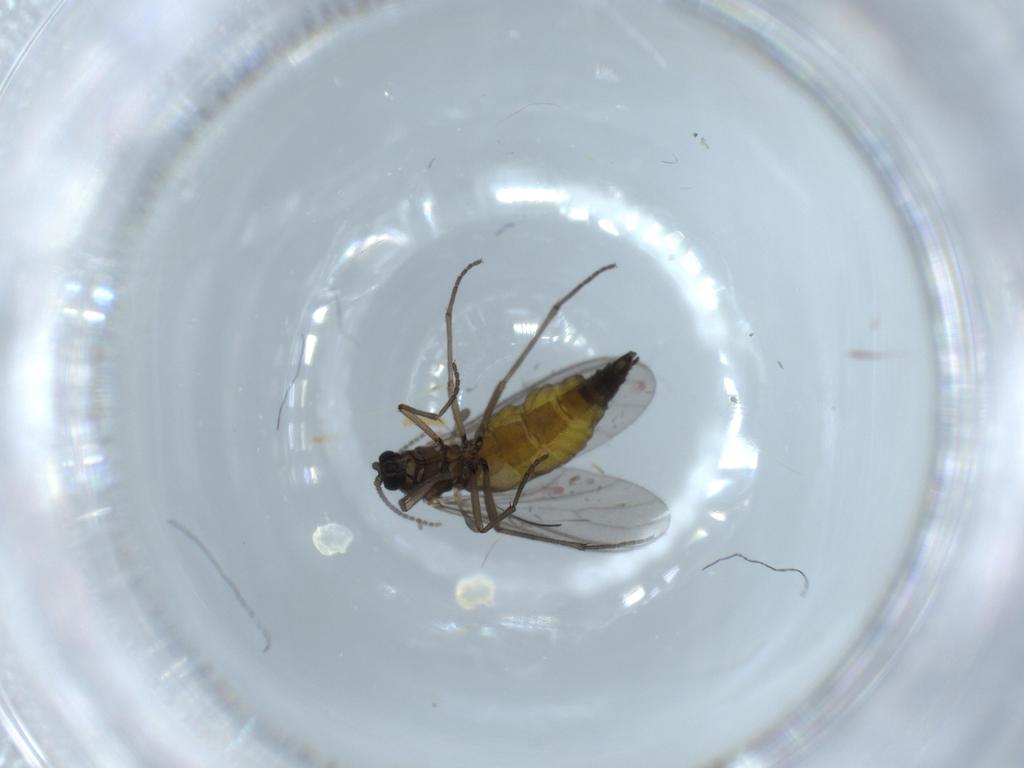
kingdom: Animalia
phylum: Arthropoda
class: Insecta
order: Diptera
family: Sciaridae
